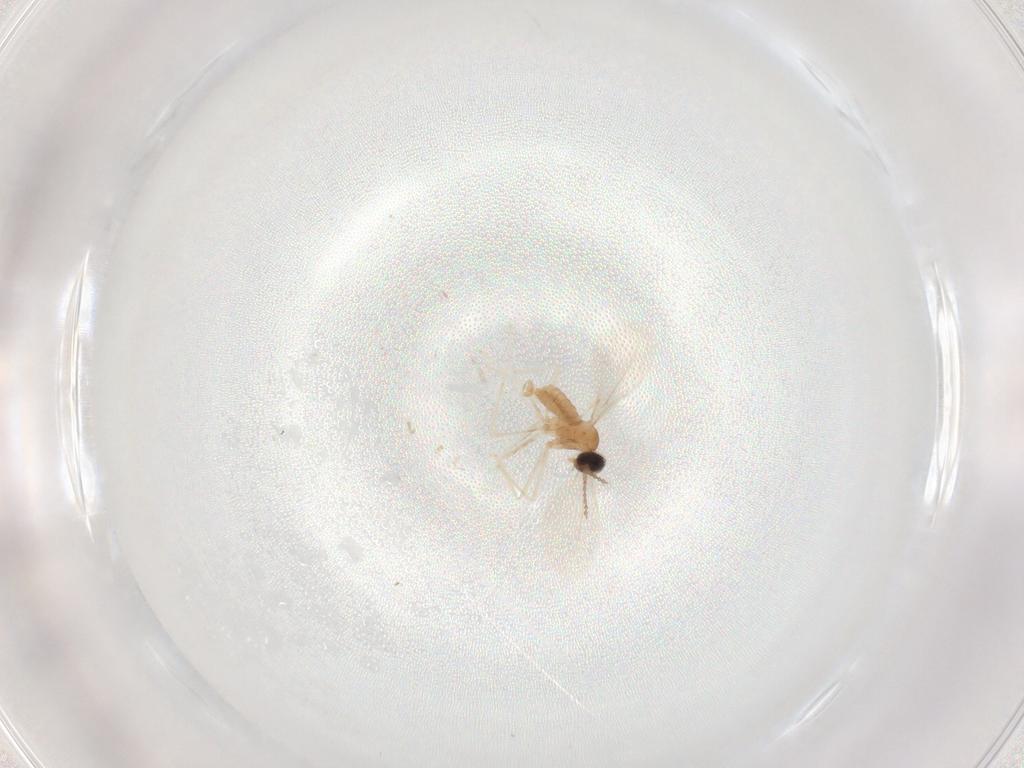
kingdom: Animalia
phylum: Arthropoda
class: Insecta
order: Diptera
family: Cecidomyiidae
